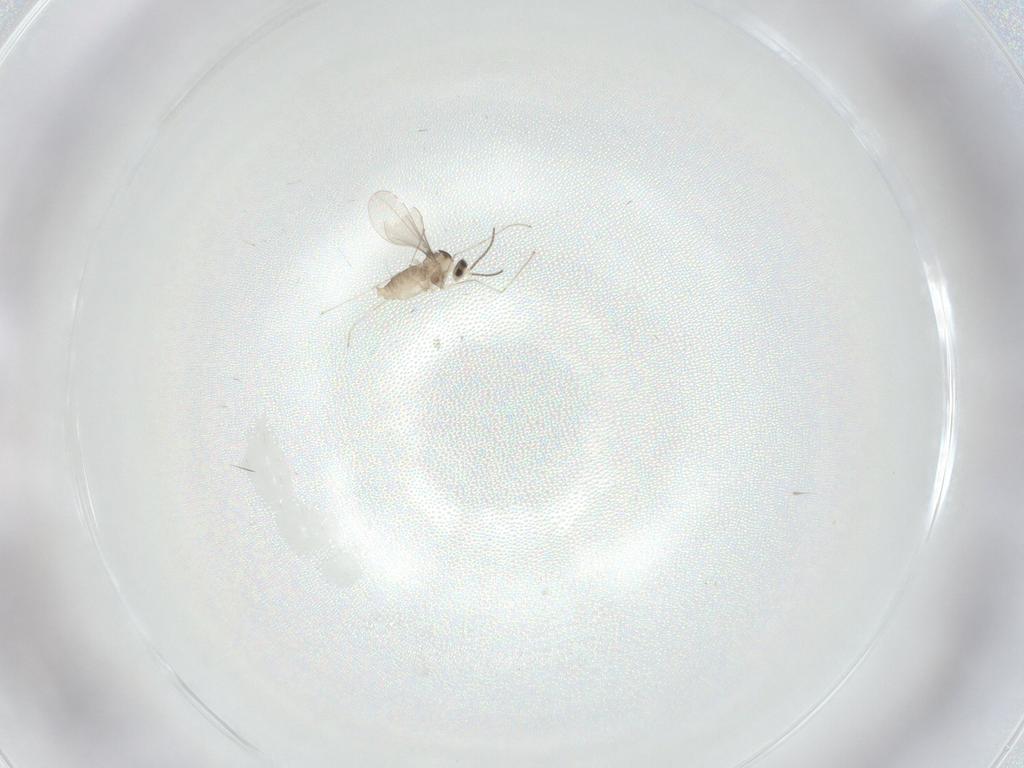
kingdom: Animalia
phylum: Arthropoda
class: Insecta
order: Diptera
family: Cecidomyiidae
